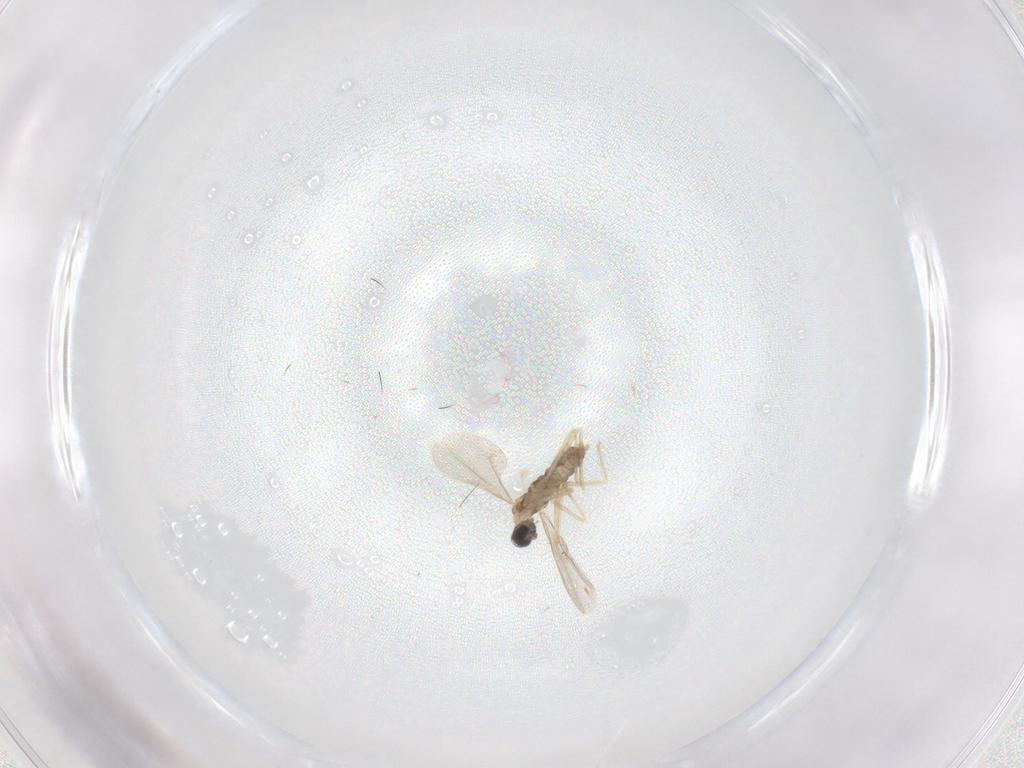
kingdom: Animalia
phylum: Arthropoda
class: Insecta
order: Diptera
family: Cecidomyiidae
